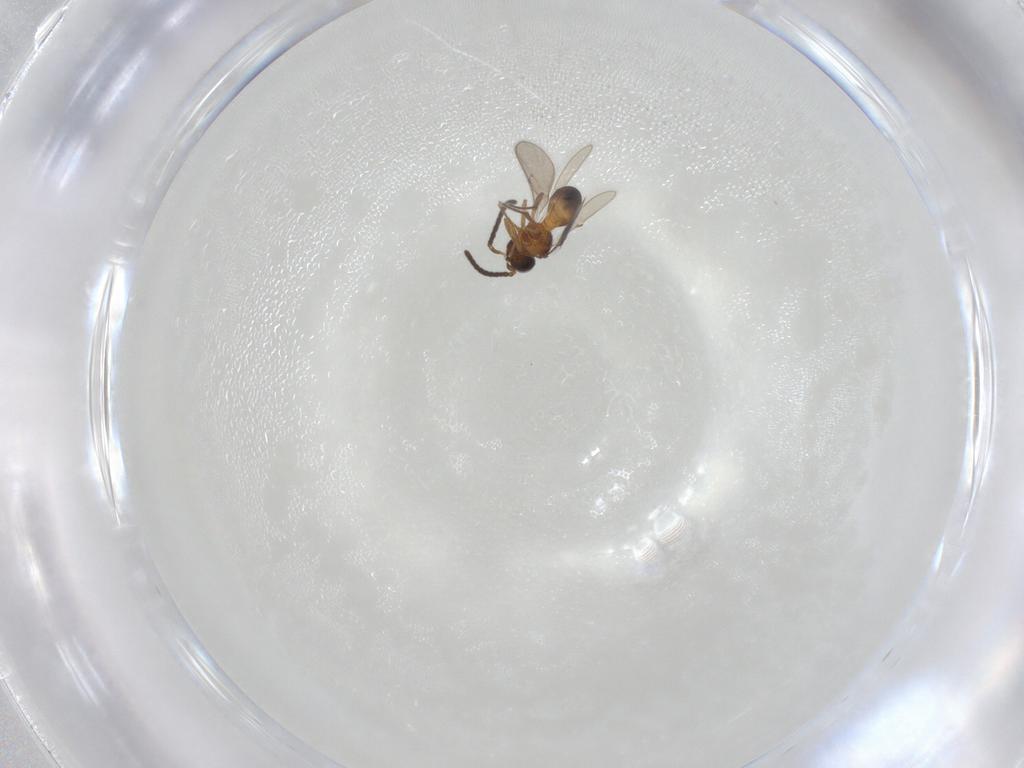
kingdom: Animalia
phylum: Arthropoda
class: Insecta
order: Hymenoptera
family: Scelionidae
